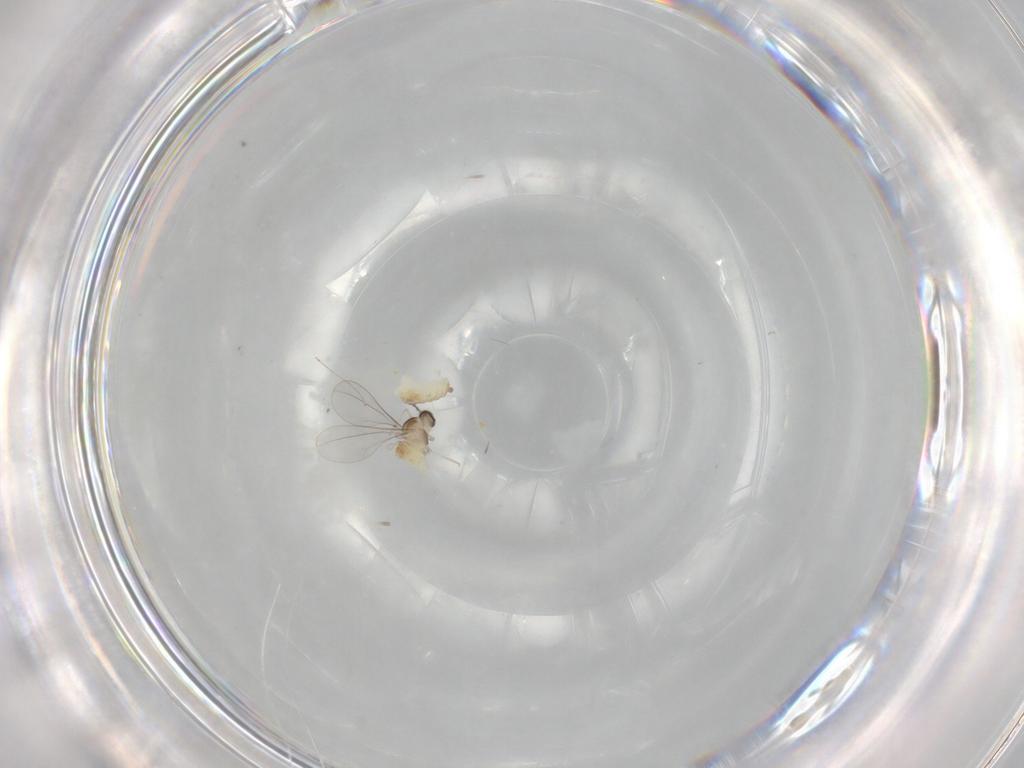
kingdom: Animalia
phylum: Arthropoda
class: Insecta
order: Diptera
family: Cecidomyiidae
